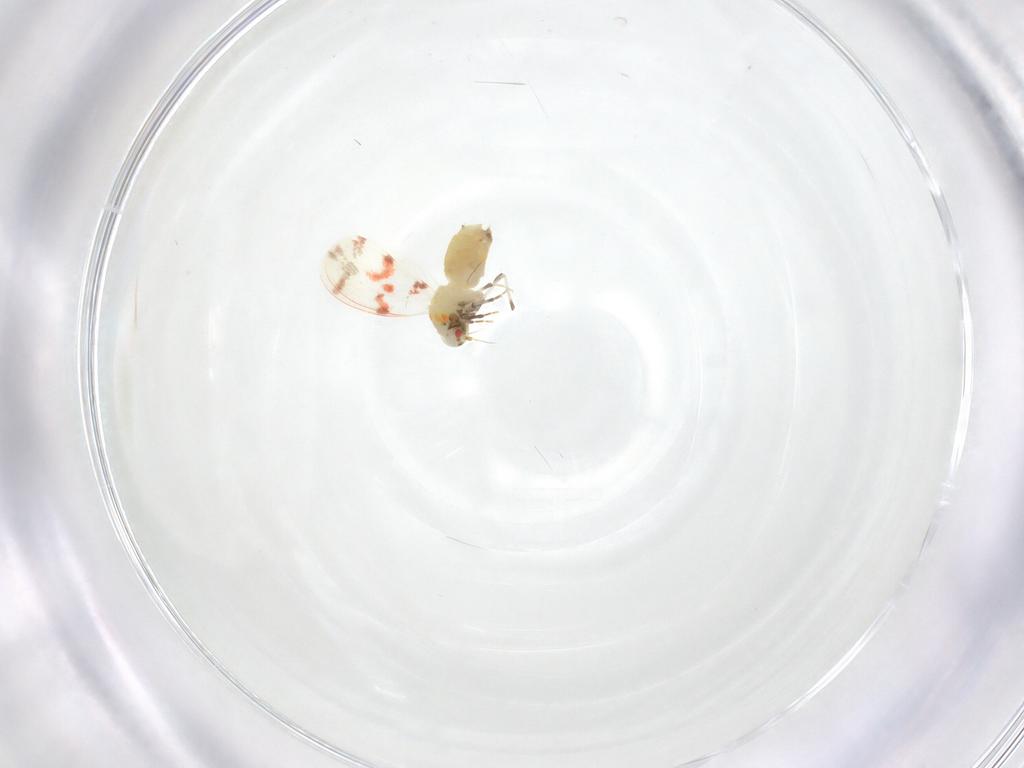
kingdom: Animalia
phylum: Arthropoda
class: Insecta
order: Hemiptera
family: Aleyrodidae
